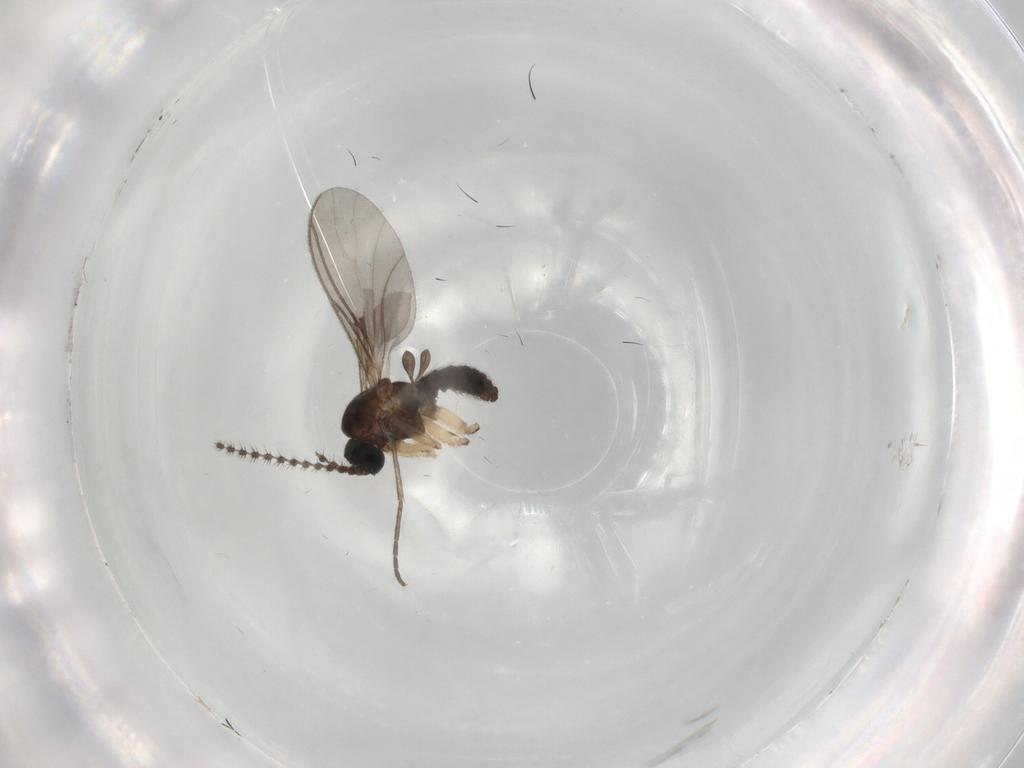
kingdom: Animalia
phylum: Arthropoda
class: Insecta
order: Diptera
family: Sciaridae
